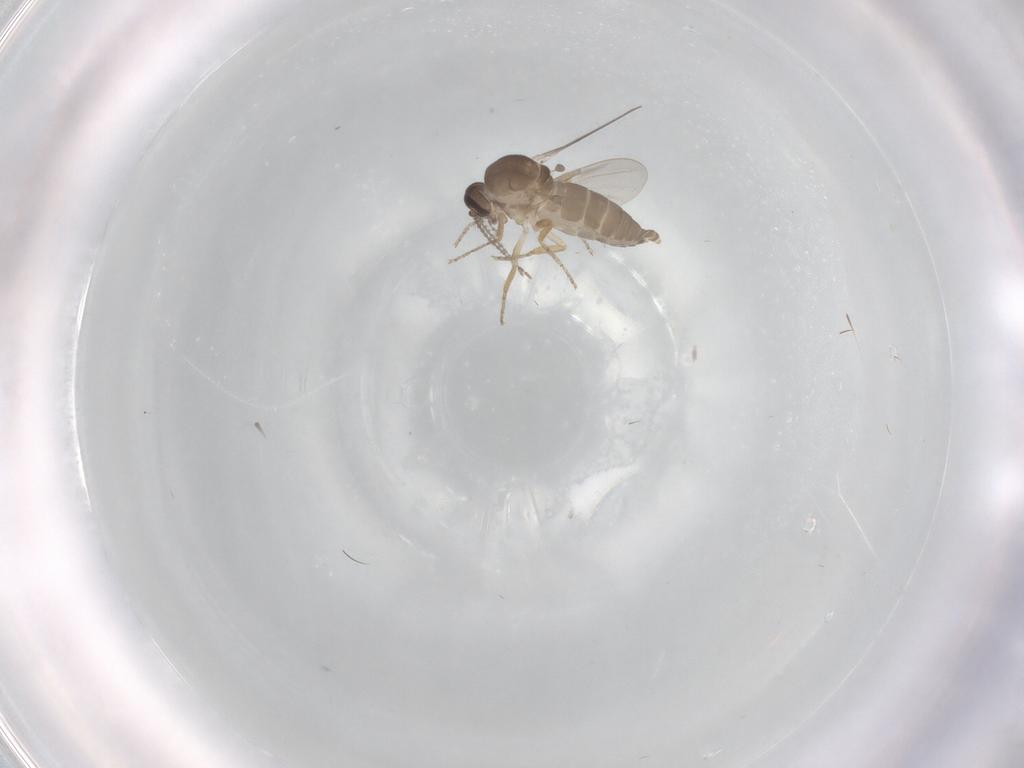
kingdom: Animalia
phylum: Arthropoda
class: Insecta
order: Diptera
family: Ceratopogonidae
